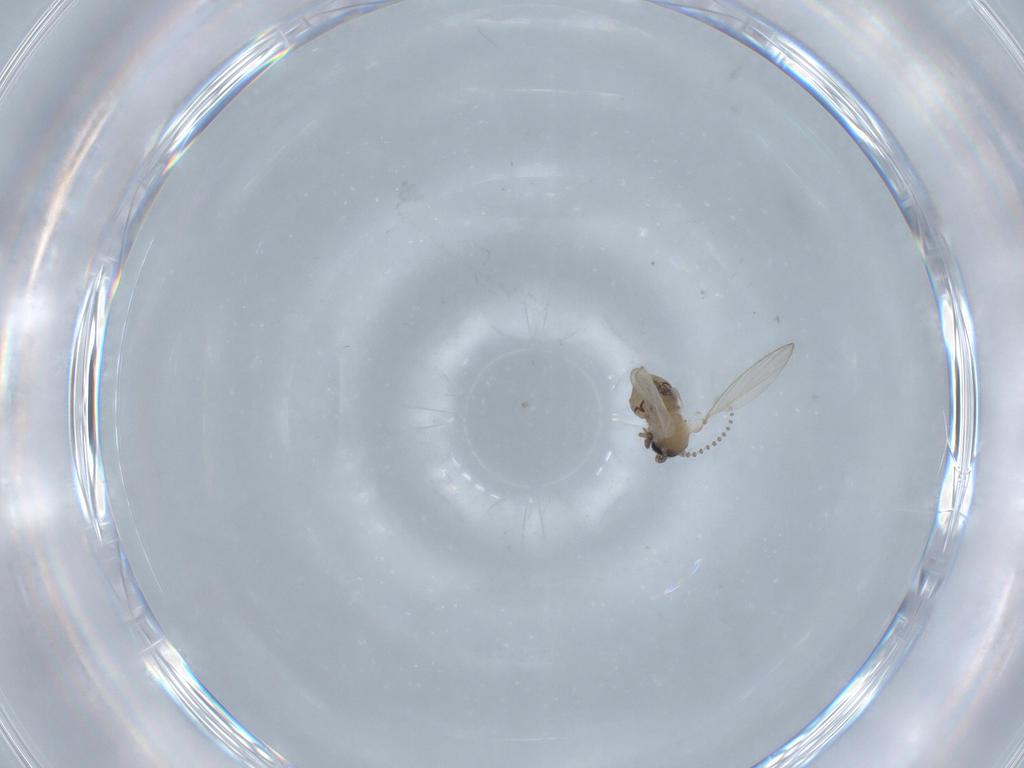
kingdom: Animalia
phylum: Arthropoda
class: Insecta
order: Diptera
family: Psychodidae
